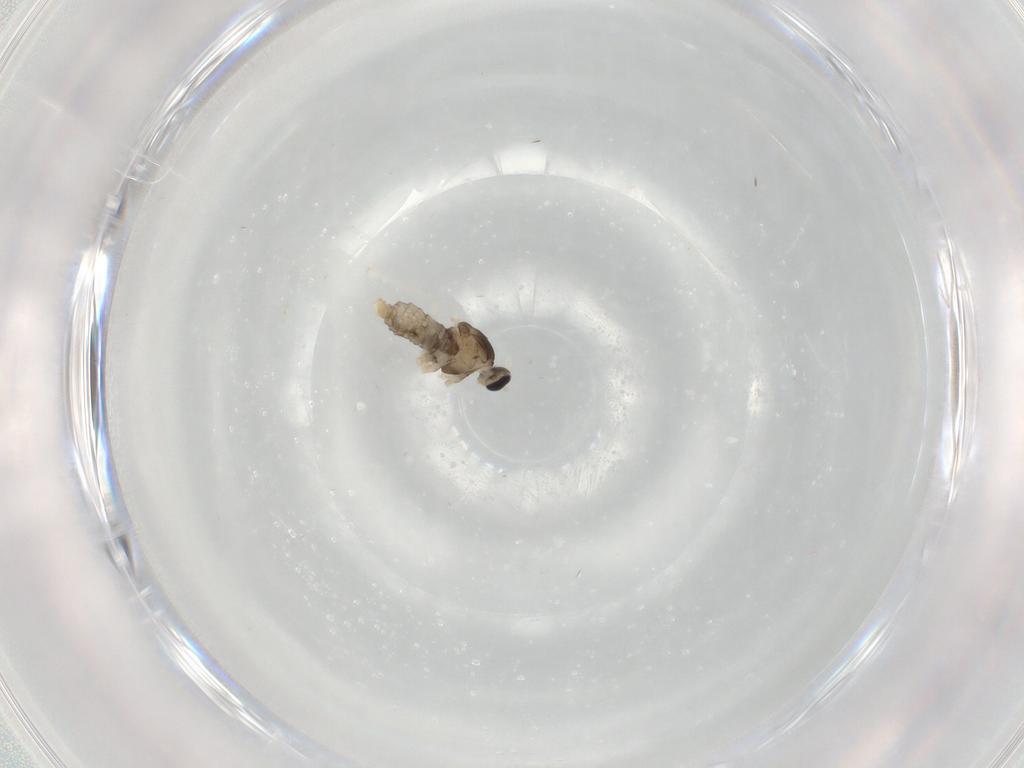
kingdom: Animalia
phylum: Arthropoda
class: Insecta
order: Diptera
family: Cecidomyiidae
